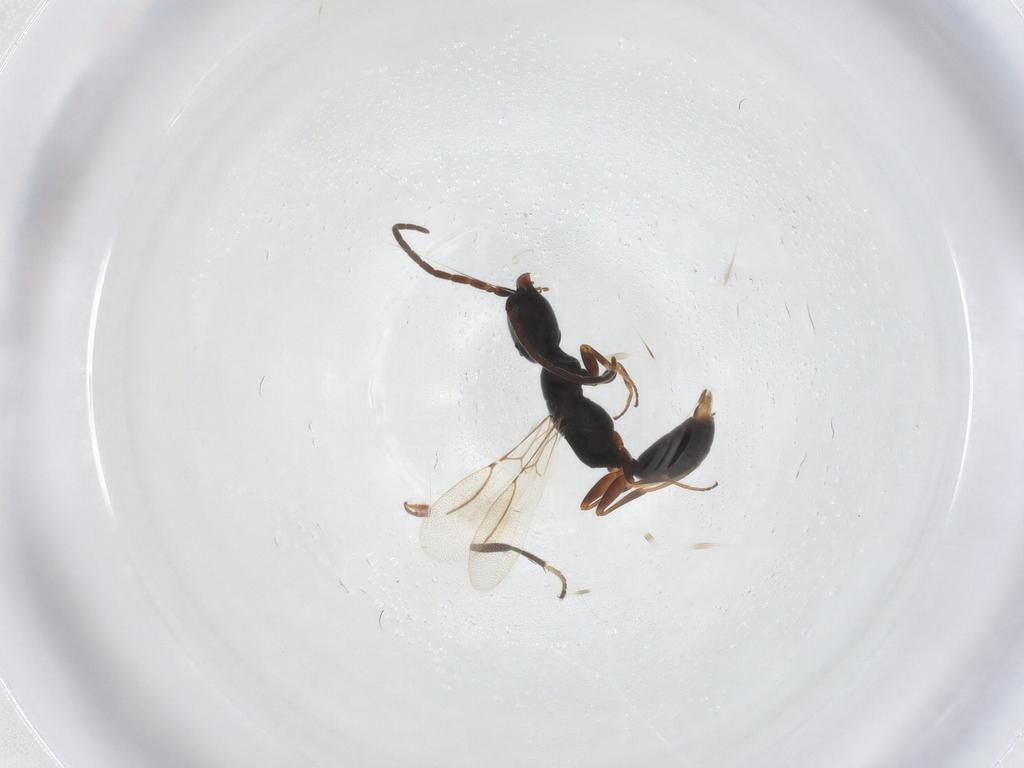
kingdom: Animalia
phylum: Arthropoda
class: Insecta
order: Hymenoptera
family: Bethylidae
